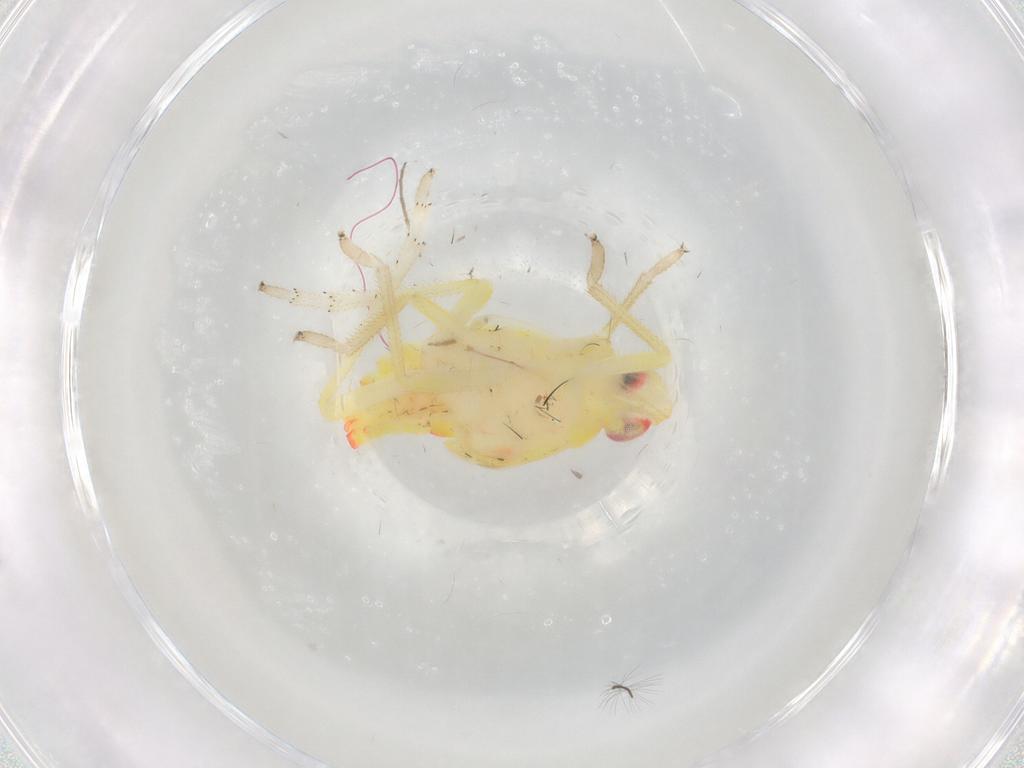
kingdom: Animalia
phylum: Arthropoda
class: Insecta
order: Hemiptera
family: Tropiduchidae
